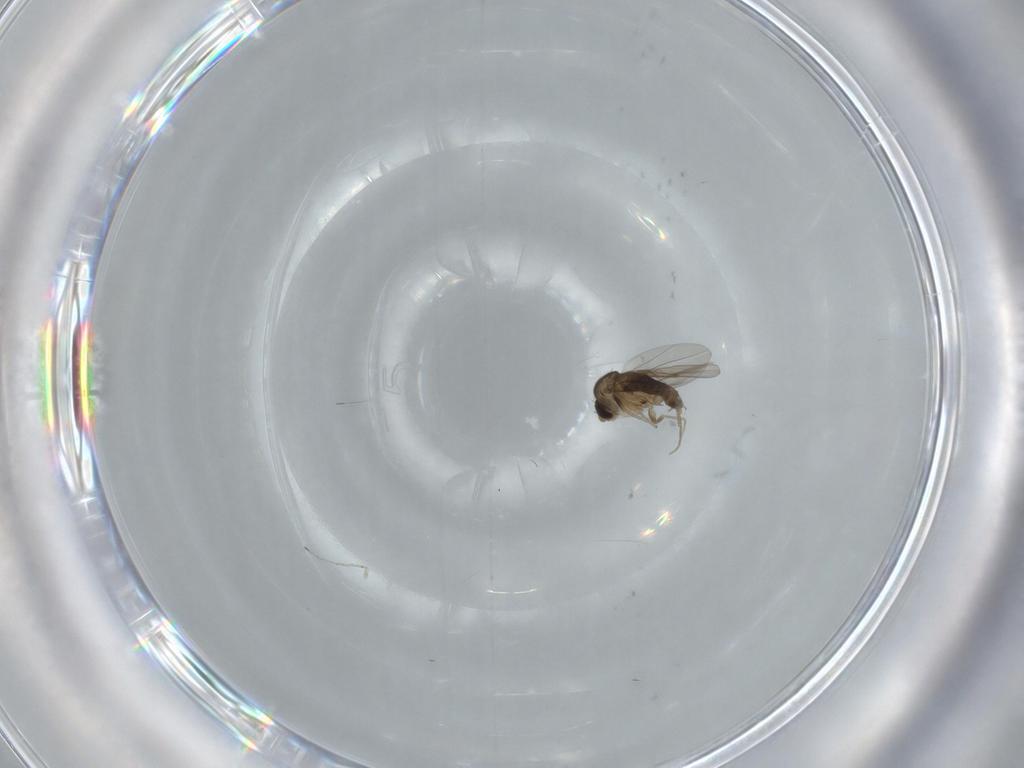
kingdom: Animalia
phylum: Arthropoda
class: Insecta
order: Diptera
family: Phoridae
